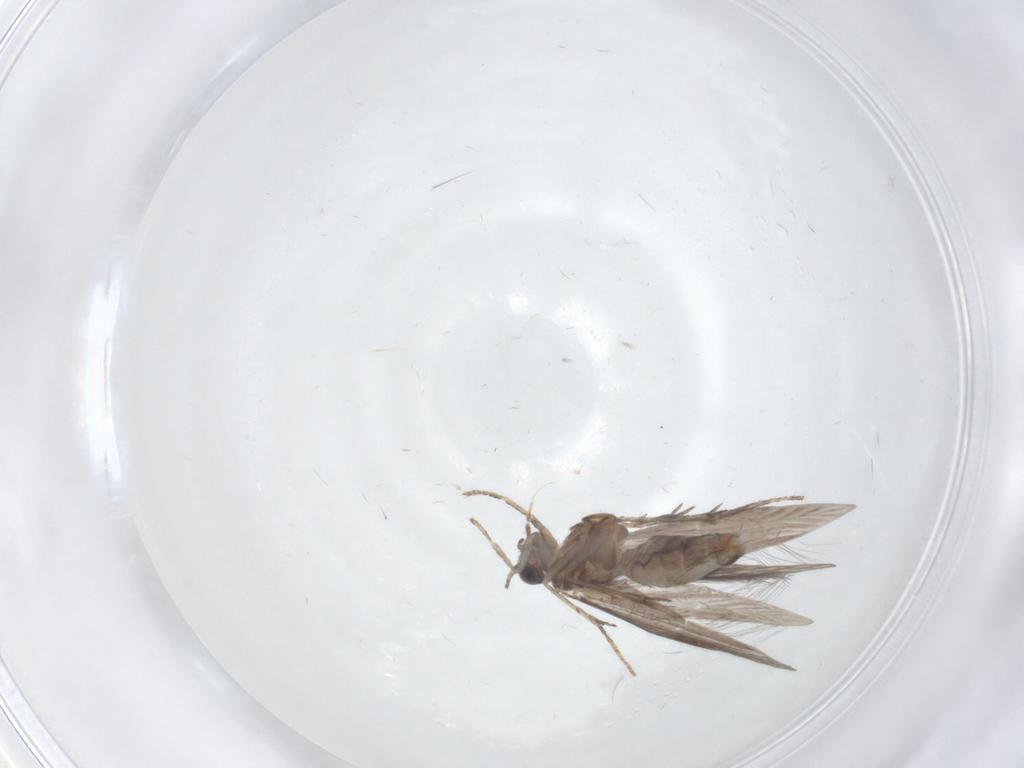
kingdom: Animalia
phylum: Arthropoda
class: Insecta
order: Trichoptera
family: Hydroptilidae
